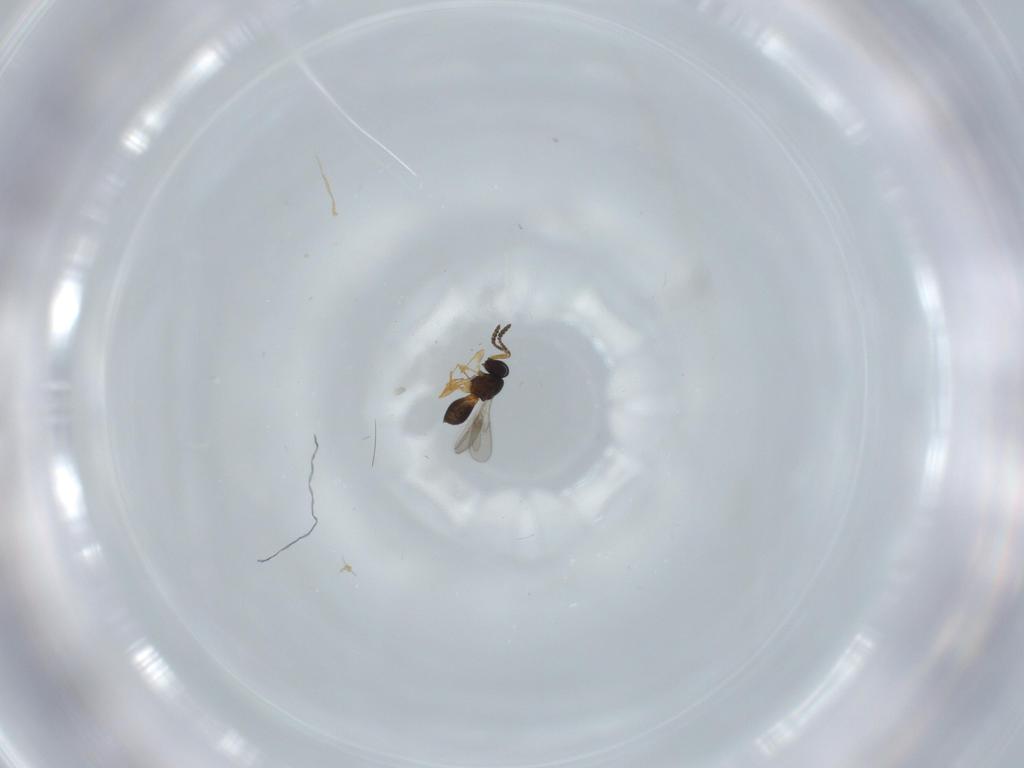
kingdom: Animalia
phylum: Arthropoda
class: Insecta
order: Hymenoptera
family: Scelionidae
